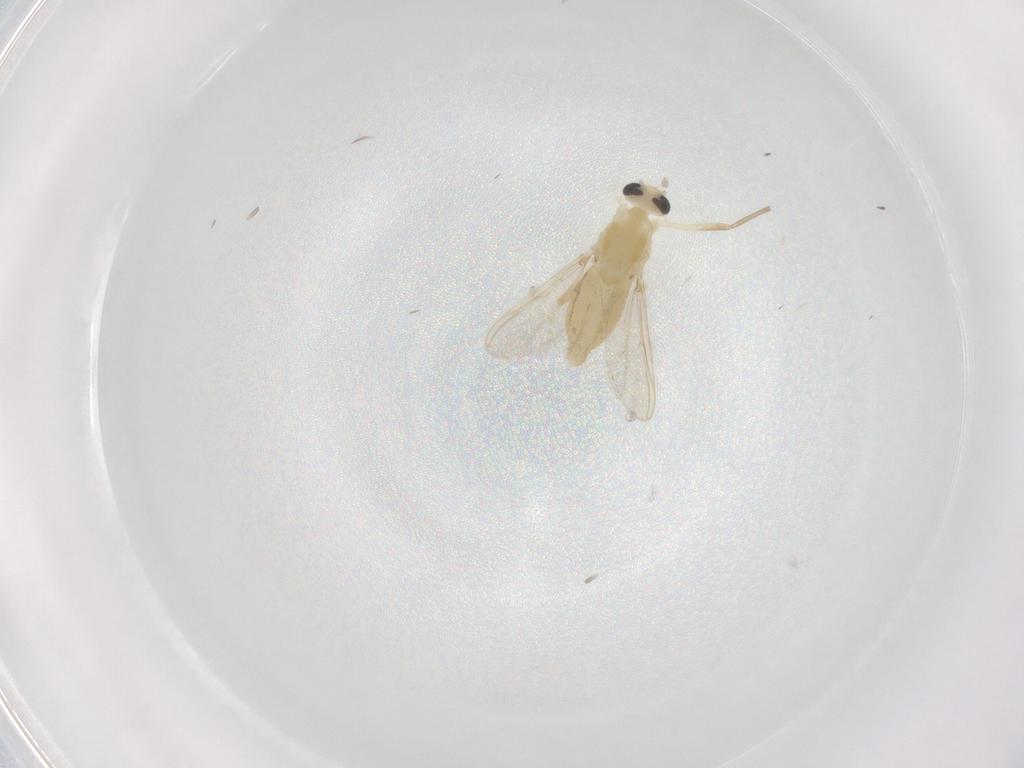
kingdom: Animalia
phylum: Arthropoda
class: Insecta
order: Diptera
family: Chironomidae
